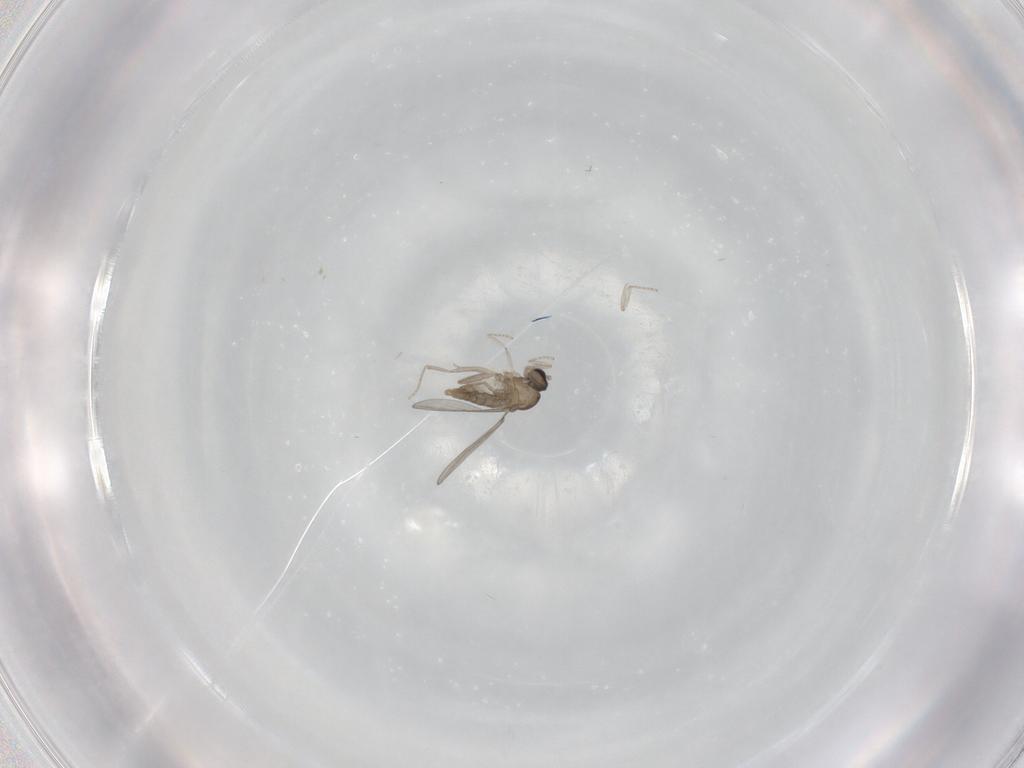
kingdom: Animalia
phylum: Arthropoda
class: Insecta
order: Diptera
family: Cecidomyiidae
